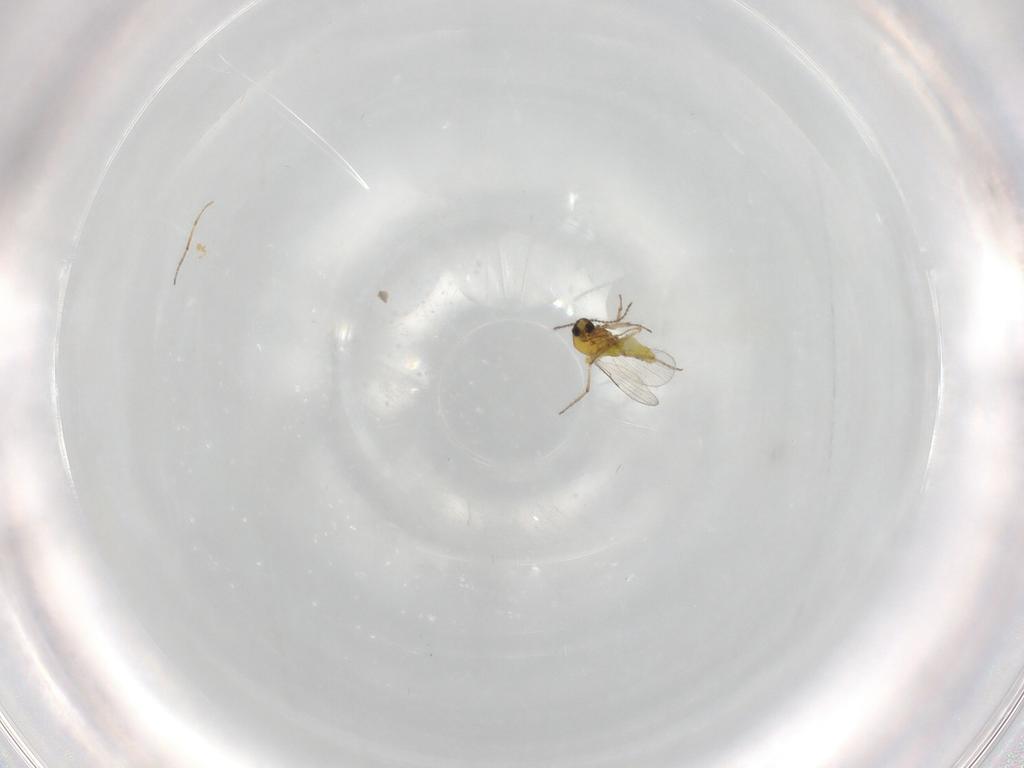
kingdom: Animalia
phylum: Arthropoda
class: Insecta
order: Diptera
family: Ceratopogonidae
